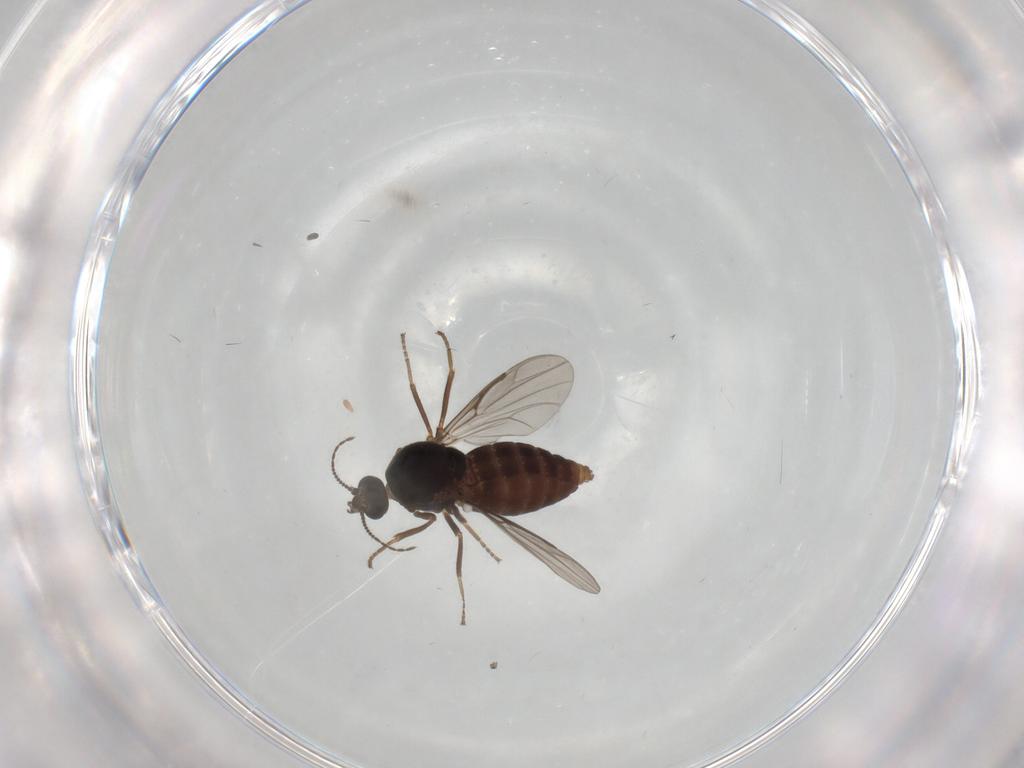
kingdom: Animalia
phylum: Arthropoda
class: Insecta
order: Diptera
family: Ceratopogonidae
